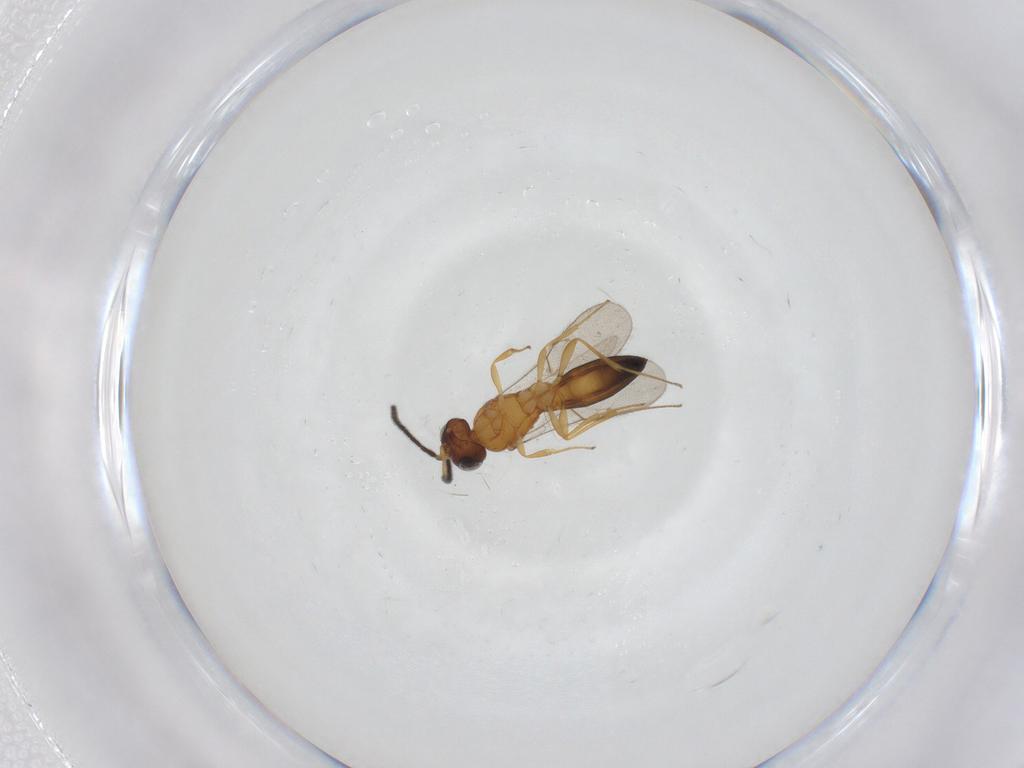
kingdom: Animalia
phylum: Arthropoda
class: Insecta
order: Hymenoptera
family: Scelionidae
